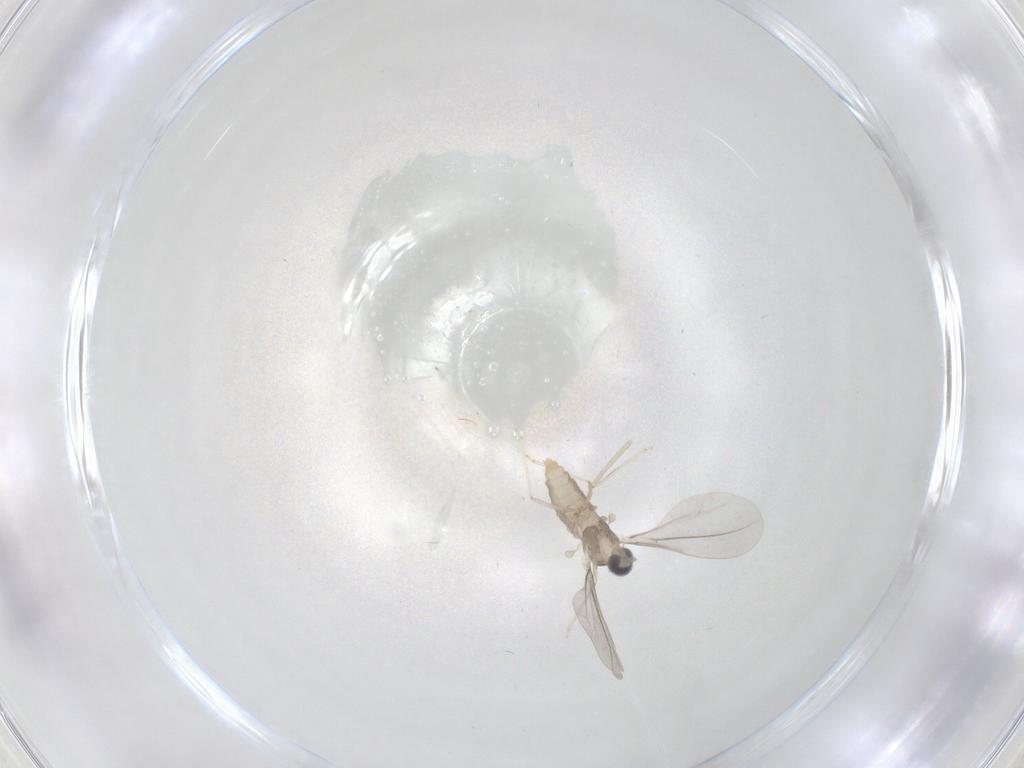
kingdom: Animalia
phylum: Arthropoda
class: Insecta
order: Diptera
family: Cecidomyiidae
